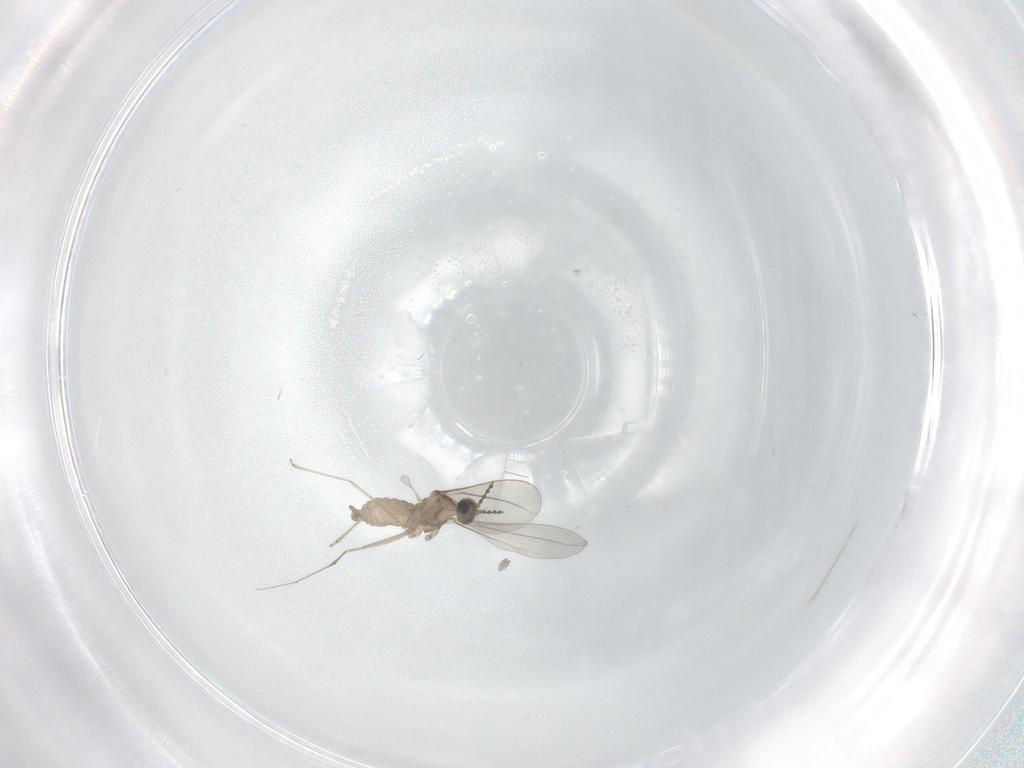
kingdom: Animalia
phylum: Arthropoda
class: Insecta
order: Diptera
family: Cecidomyiidae
